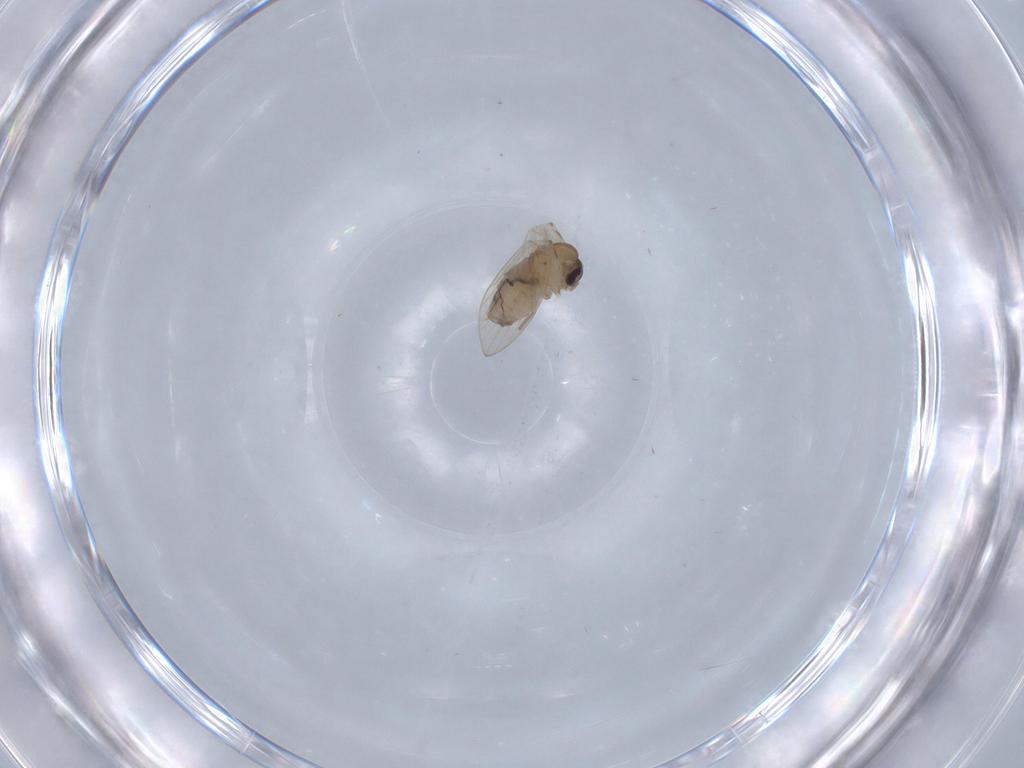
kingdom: Animalia
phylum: Arthropoda
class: Insecta
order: Diptera
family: Psychodidae
